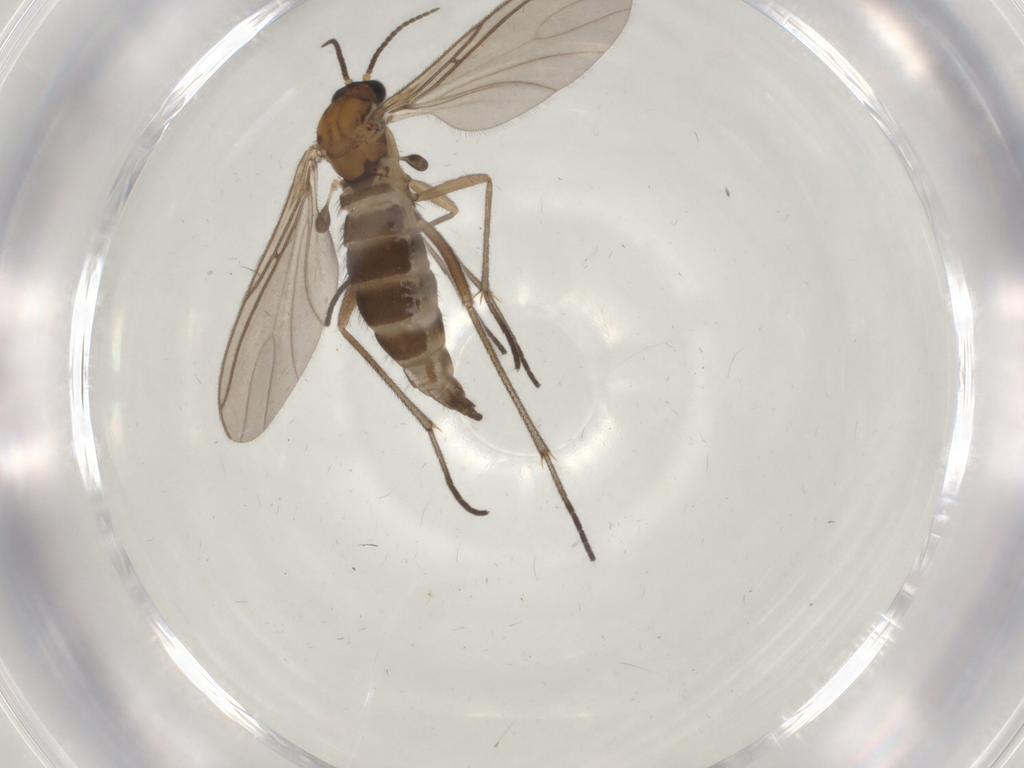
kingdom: Animalia
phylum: Arthropoda
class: Insecta
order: Diptera
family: Sciaridae
